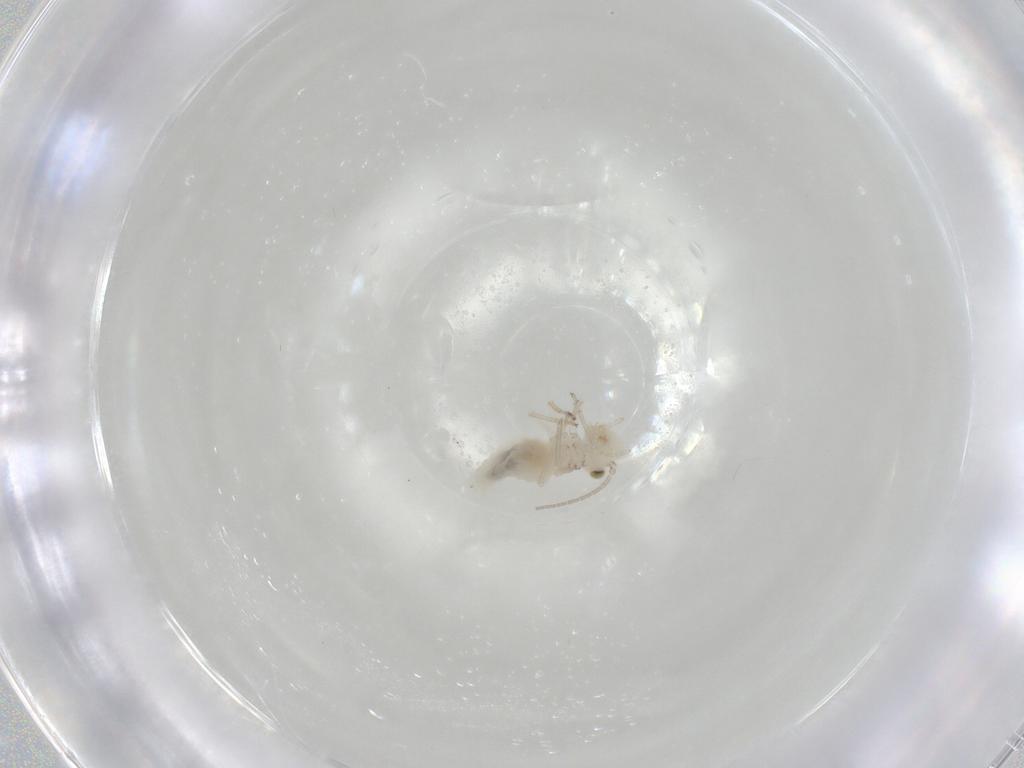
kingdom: Animalia
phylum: Arthropoda
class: Insecta
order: Psocodea
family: Caeciliusidae
